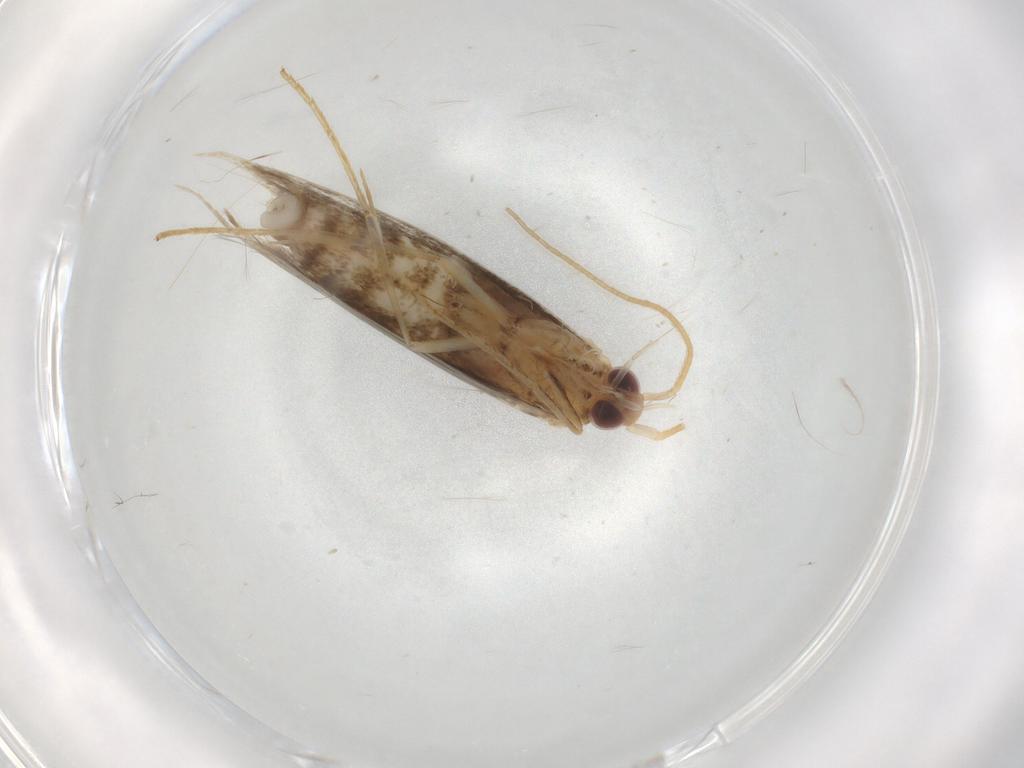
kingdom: Animalia
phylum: Arthropoda
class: Insecta
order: Lepidoptera
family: Coleophoridae
